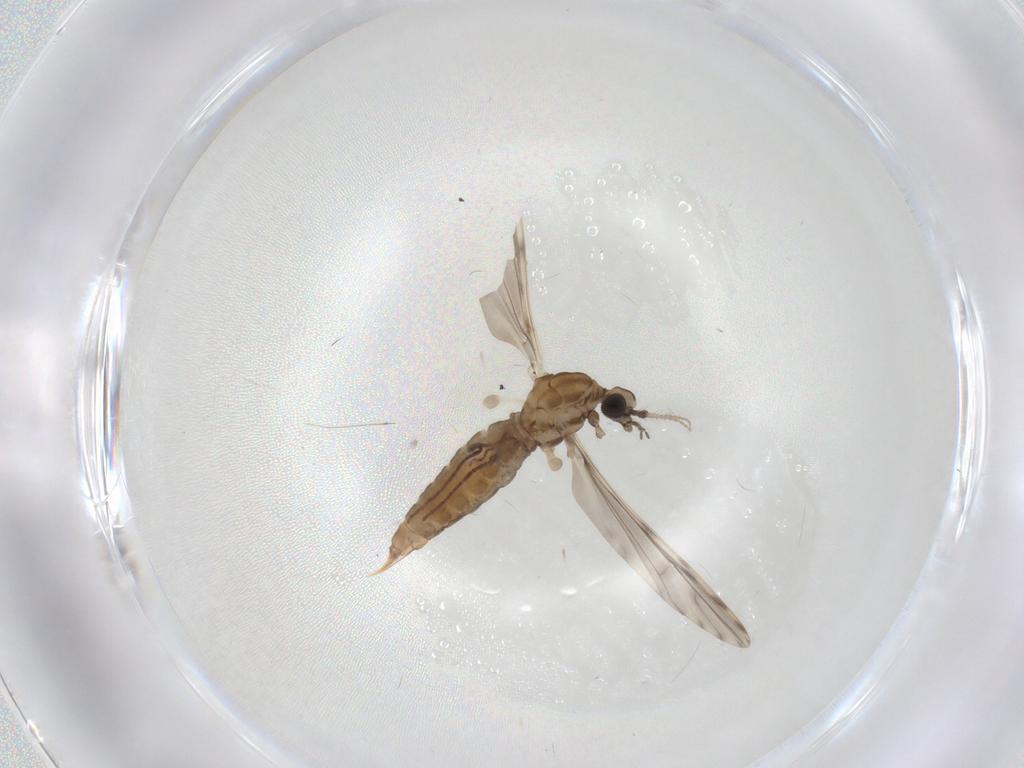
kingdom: Animalia
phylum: Arthropoda
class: Insecta
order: Diptera
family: Limoniidae
